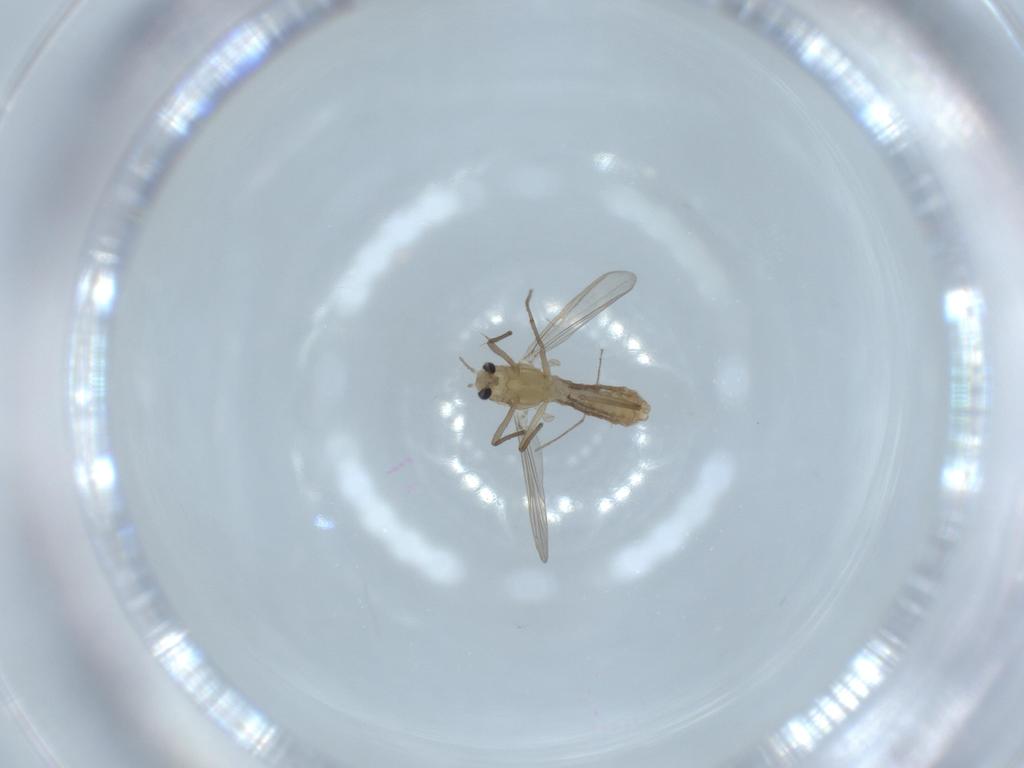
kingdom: Animalia
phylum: Arthropoda
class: Insecta
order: Diptera
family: Chironomidae
